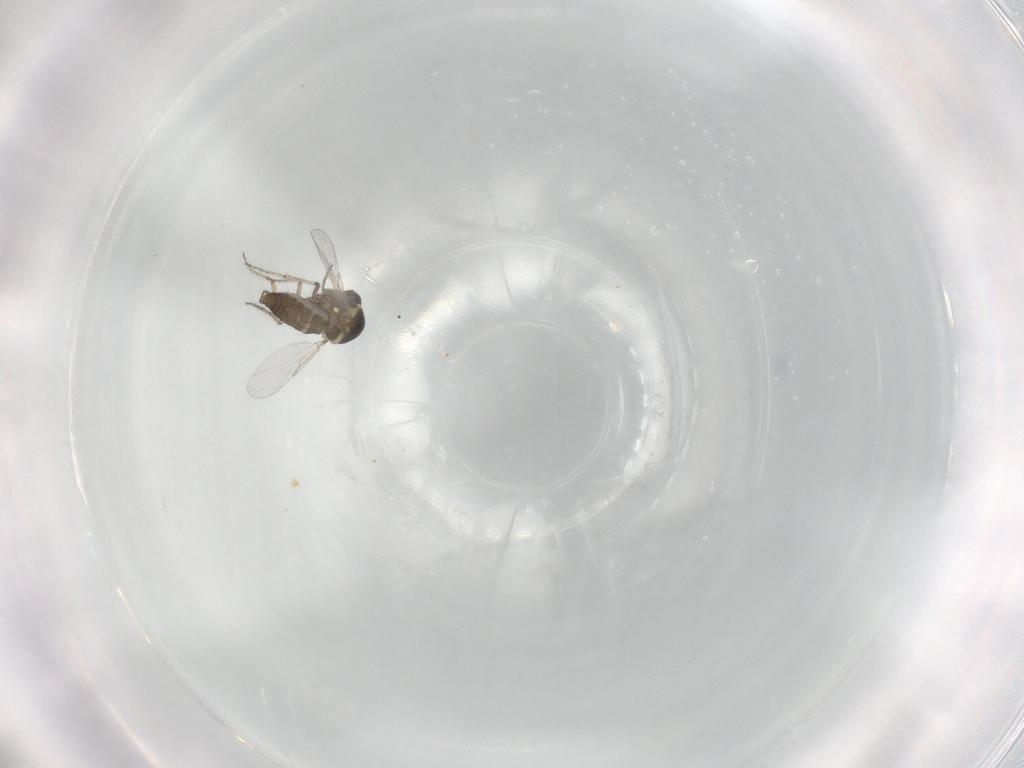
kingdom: Animalia
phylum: Arthropoda
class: Insecta
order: Diptera
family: Ceratopogonidae
